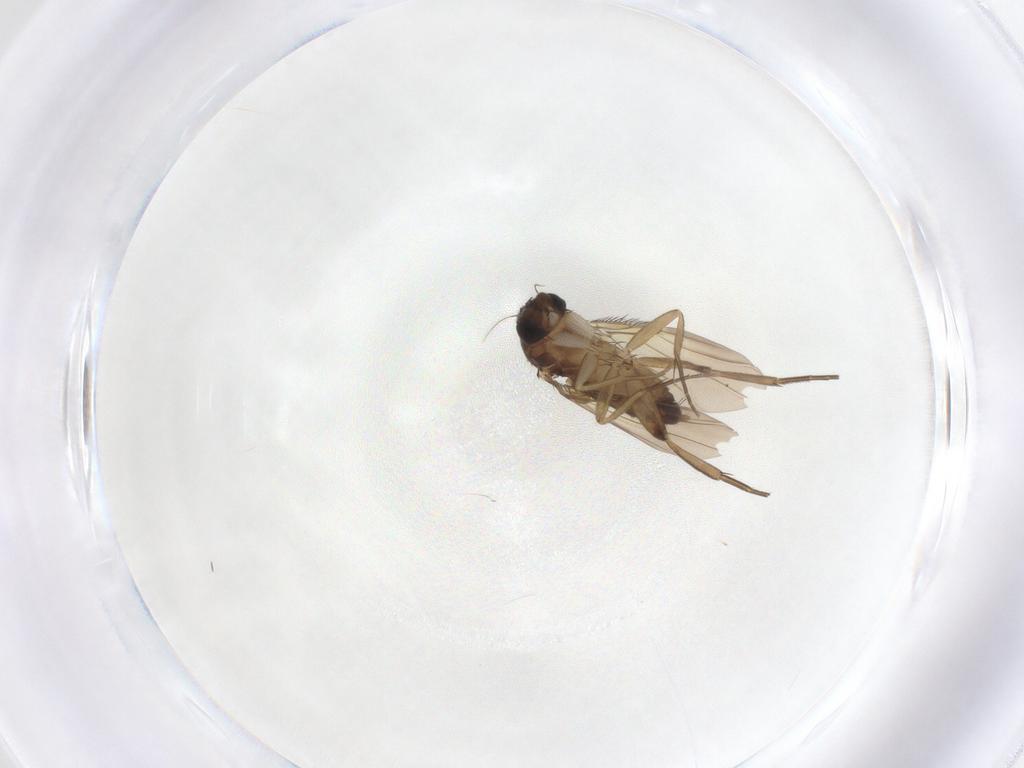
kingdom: Animalia
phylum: Arthropoda
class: Insecta
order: Diptera
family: Phoridae
